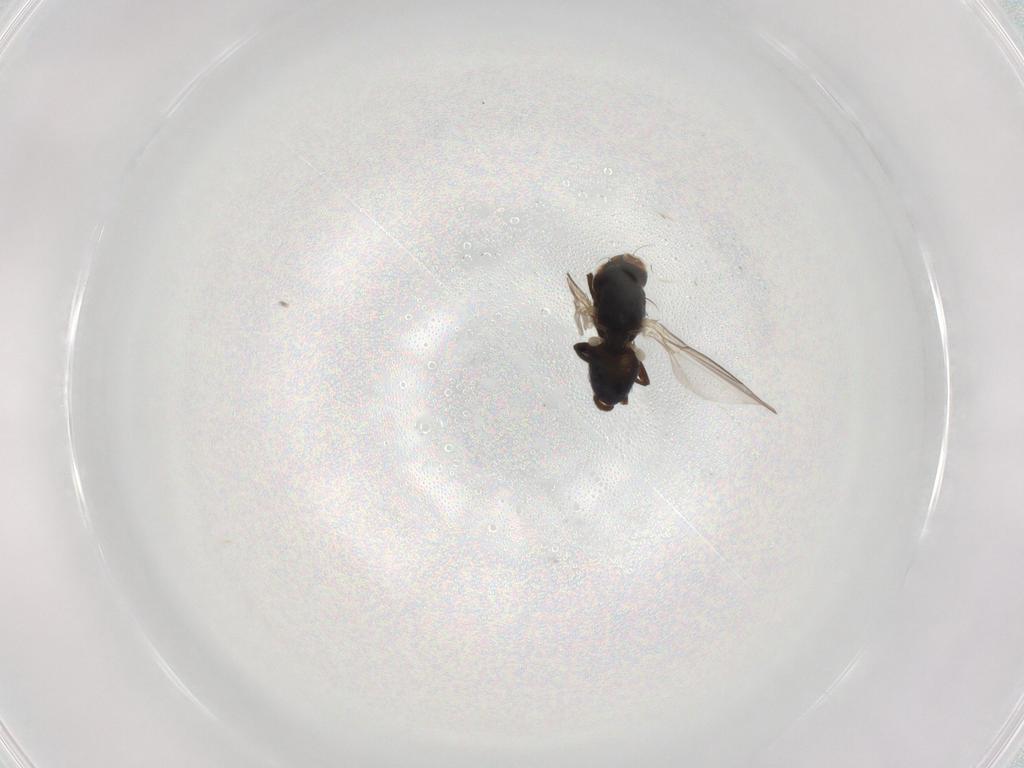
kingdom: Animalia
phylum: Arthropoda
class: Insecta
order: Diptera
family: Agromyzidae
